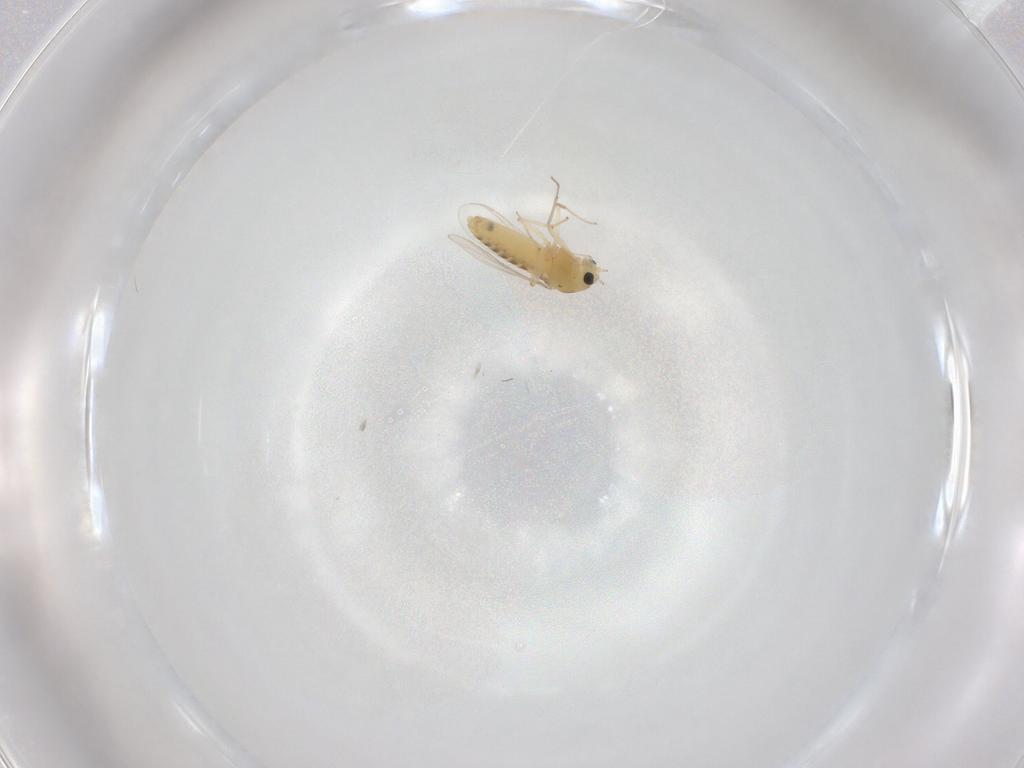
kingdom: Animalia
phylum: Arthropoda
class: Insecta
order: Diptera
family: Chironomidae
